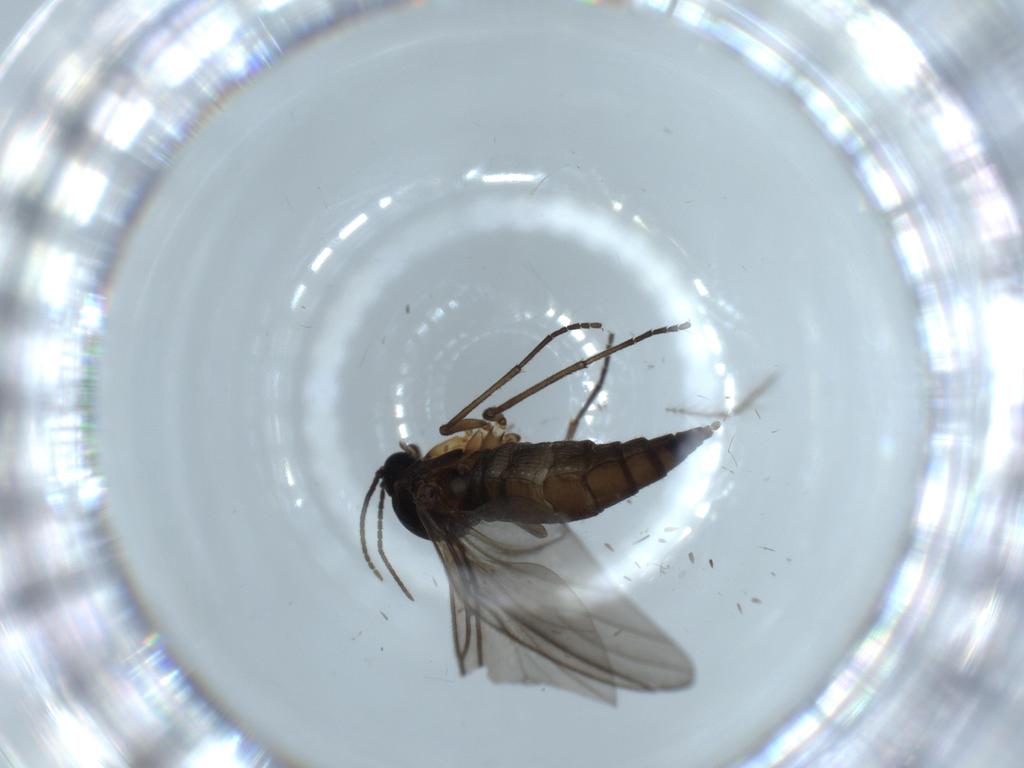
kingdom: Animalia
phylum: Arthropoda
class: Insecta
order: Diptera
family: Sciaridae
